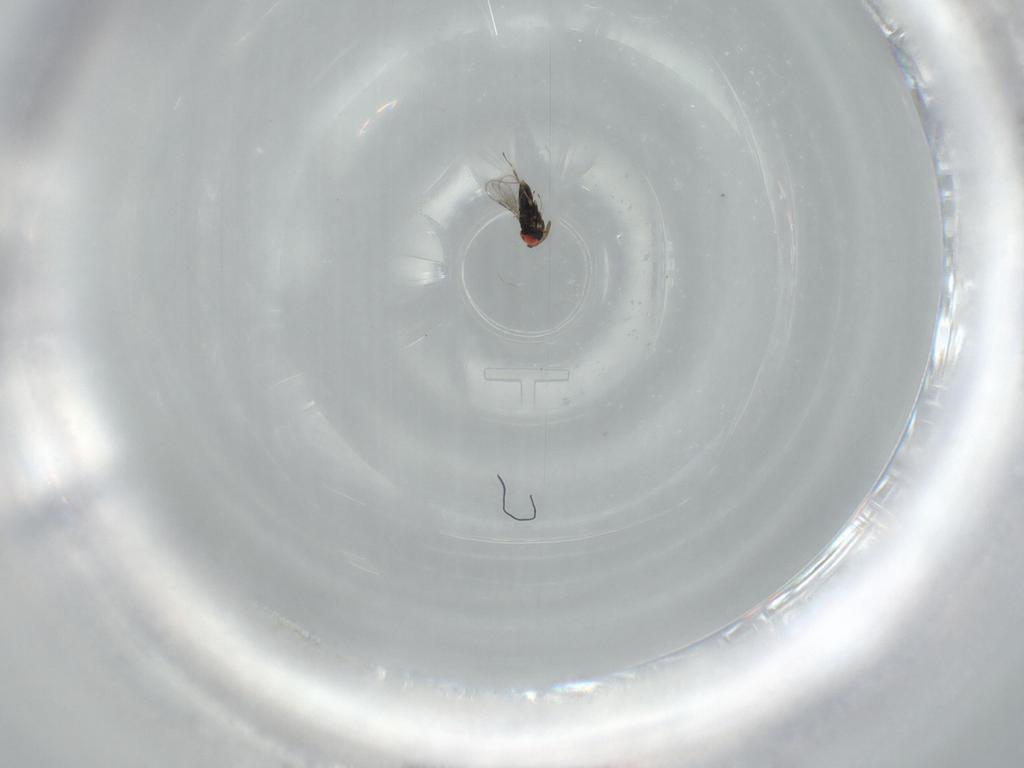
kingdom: Animalia
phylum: Arthropoda
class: Insecta
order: Hymenoptera
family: Azotidae
